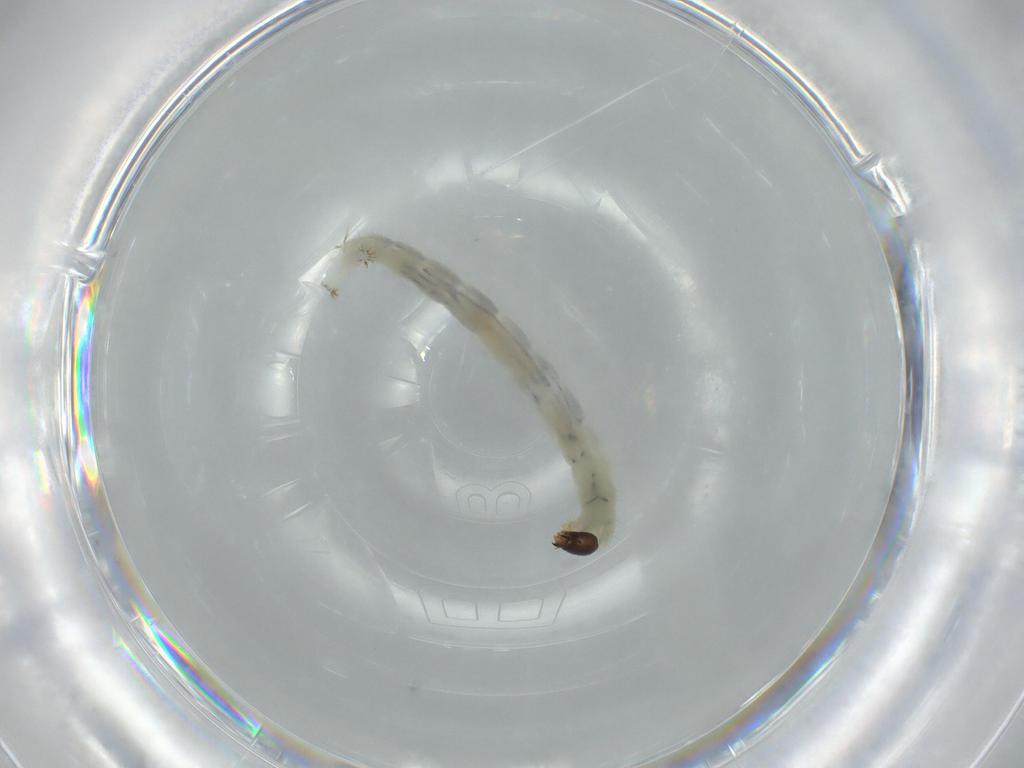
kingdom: Animalia
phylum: Arthropoda
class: Insecta
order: Diptera
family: Chironomidae
